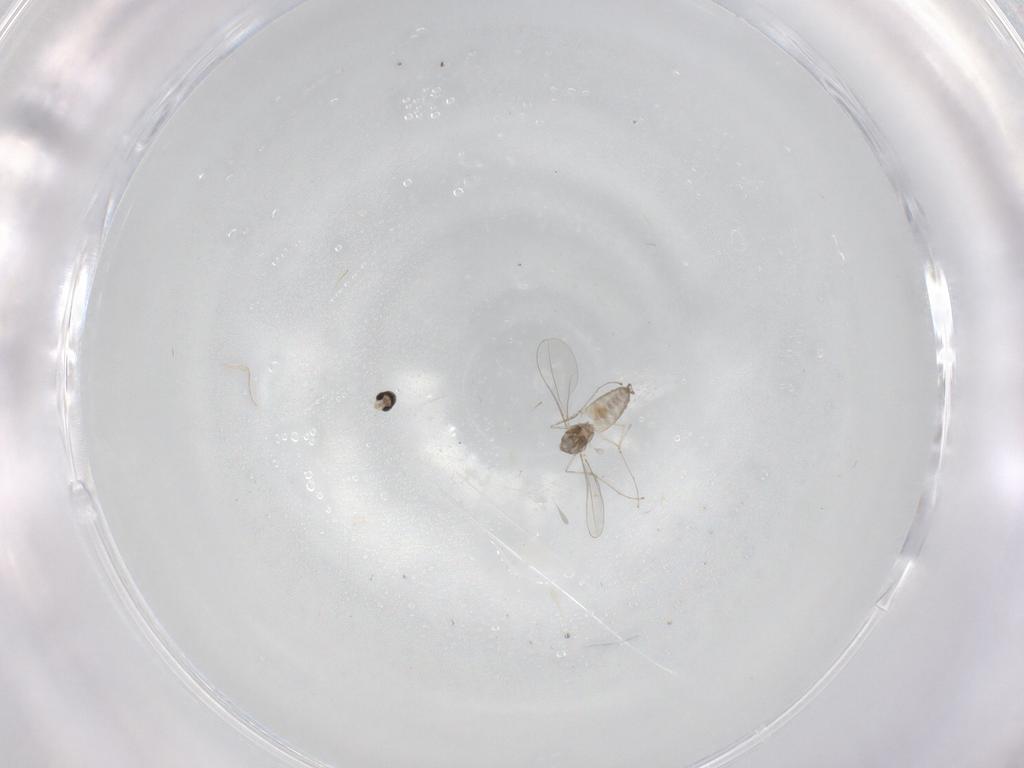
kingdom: Animalia
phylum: Arthropoda
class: Insecta
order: Diptera
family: Cecidomyiidae
